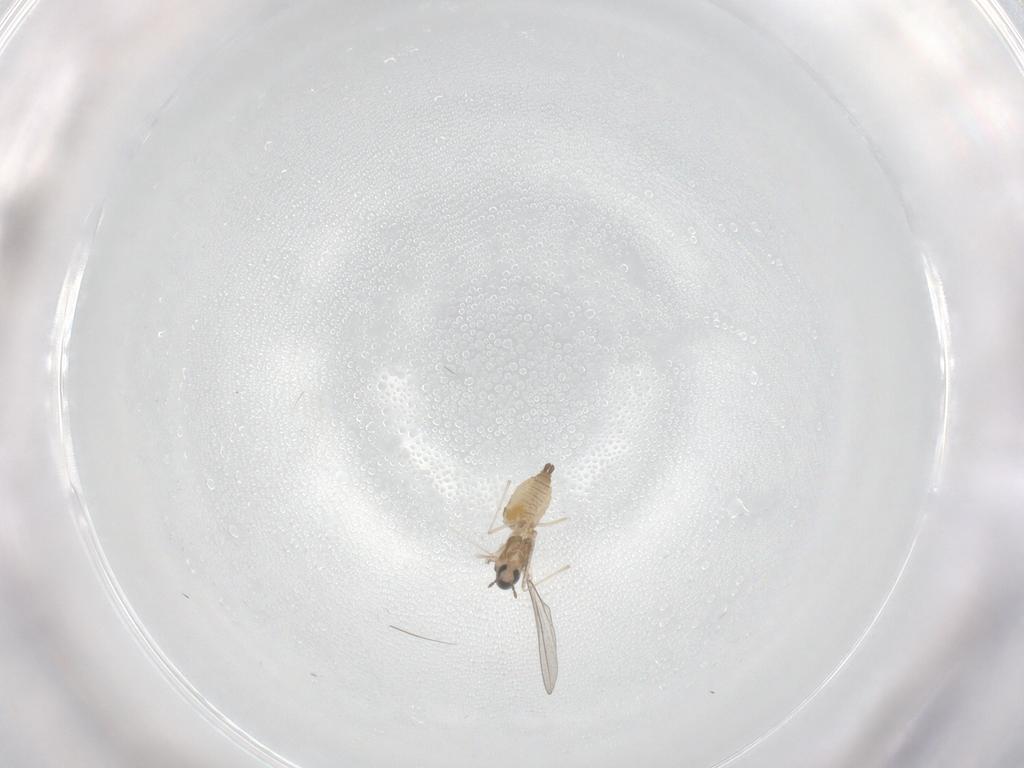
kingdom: Animalia
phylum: Arthropoda
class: Insecta
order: Diptera
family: Cecidomyiidae
